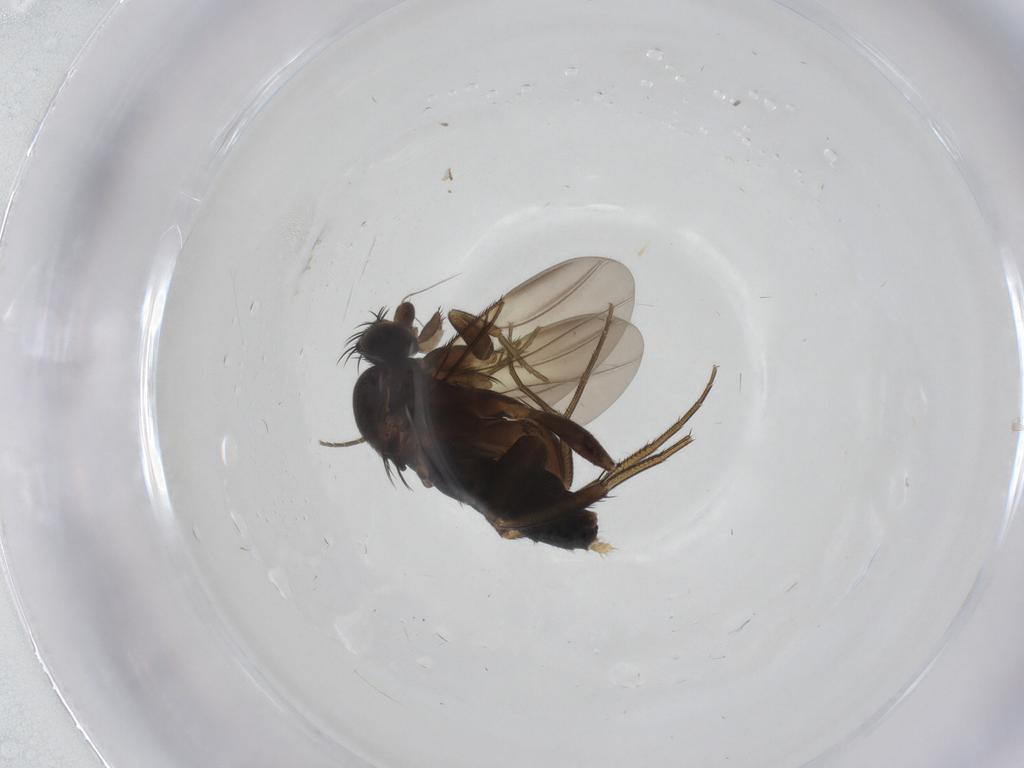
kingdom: Animalia
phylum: Arthropoda
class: Insecta
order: Diptera
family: Phoridae
